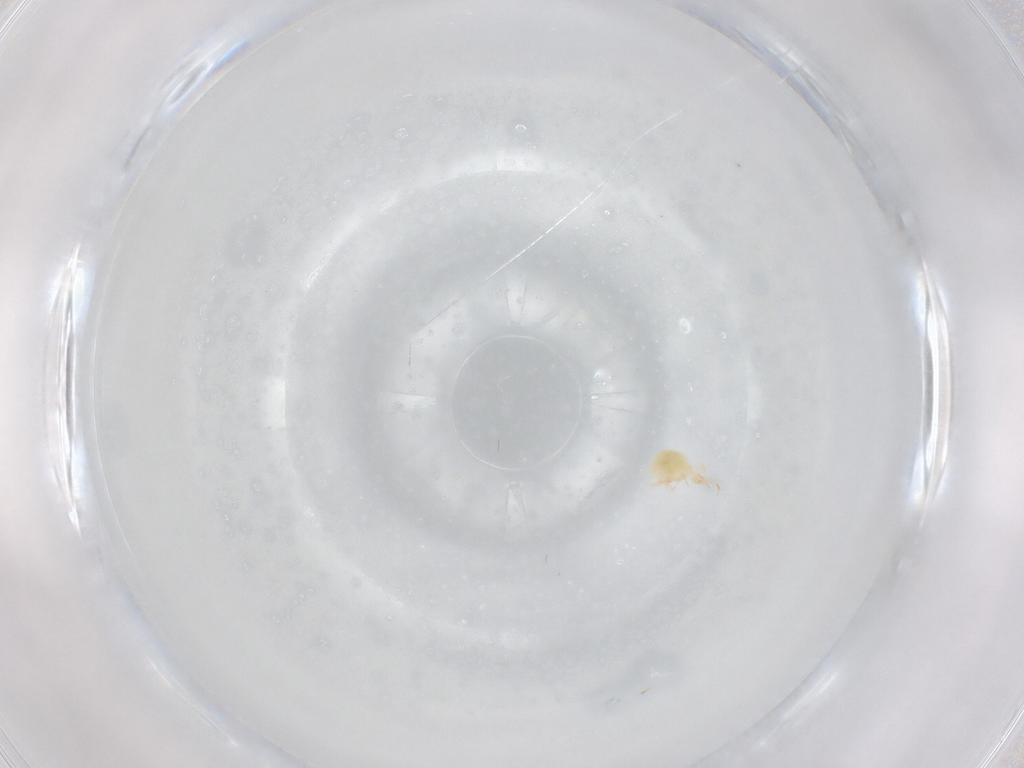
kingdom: Animalia
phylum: Arthropoda
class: Arachnida
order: Trombidiformes
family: Cunaxidae
